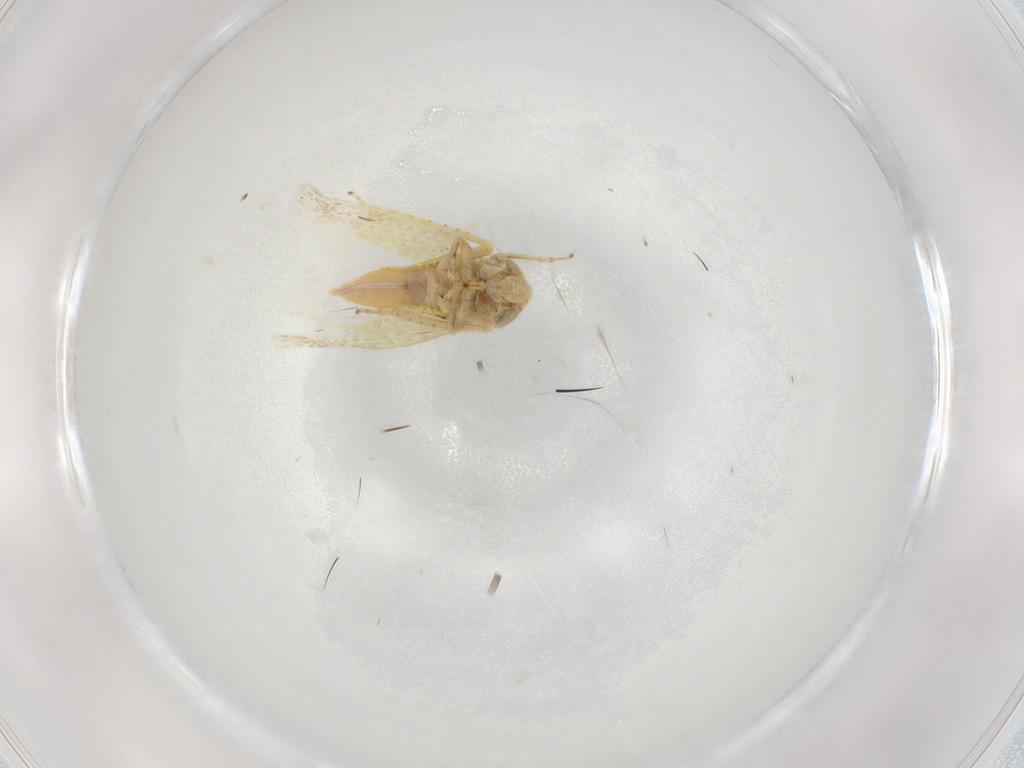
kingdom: Animalia
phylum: Arthropoda
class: Insecta
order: Hemiptera
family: Cicadellidae
